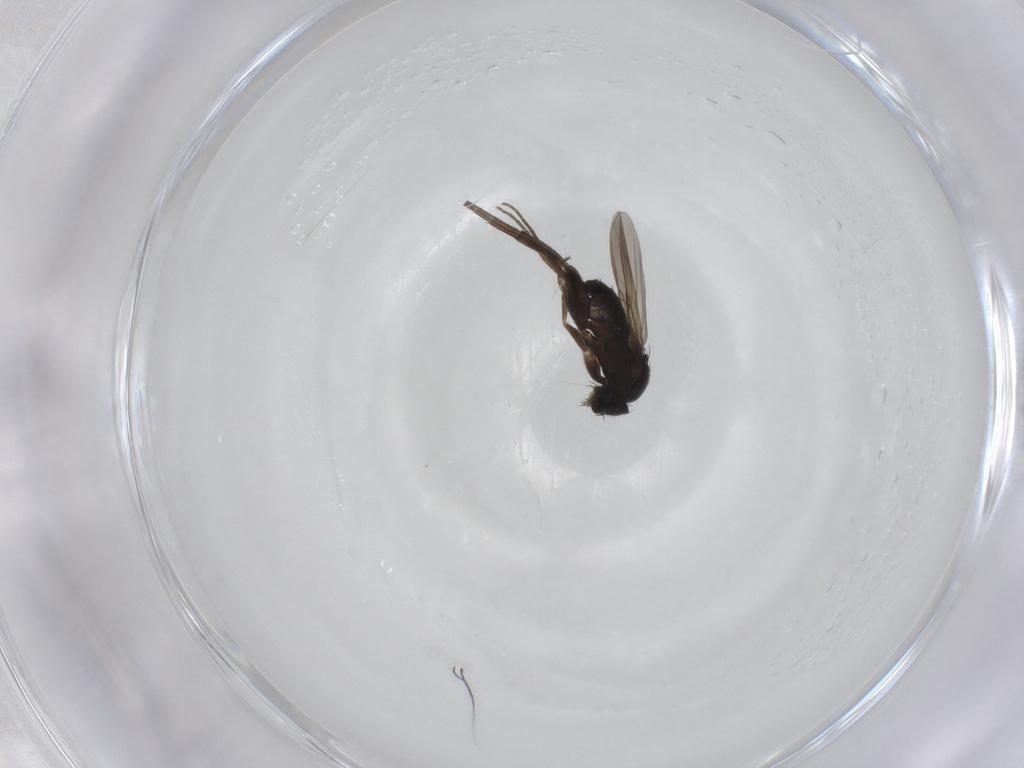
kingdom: Animalia
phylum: Arthropoda
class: Insecta
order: Diptera
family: Phoridae
